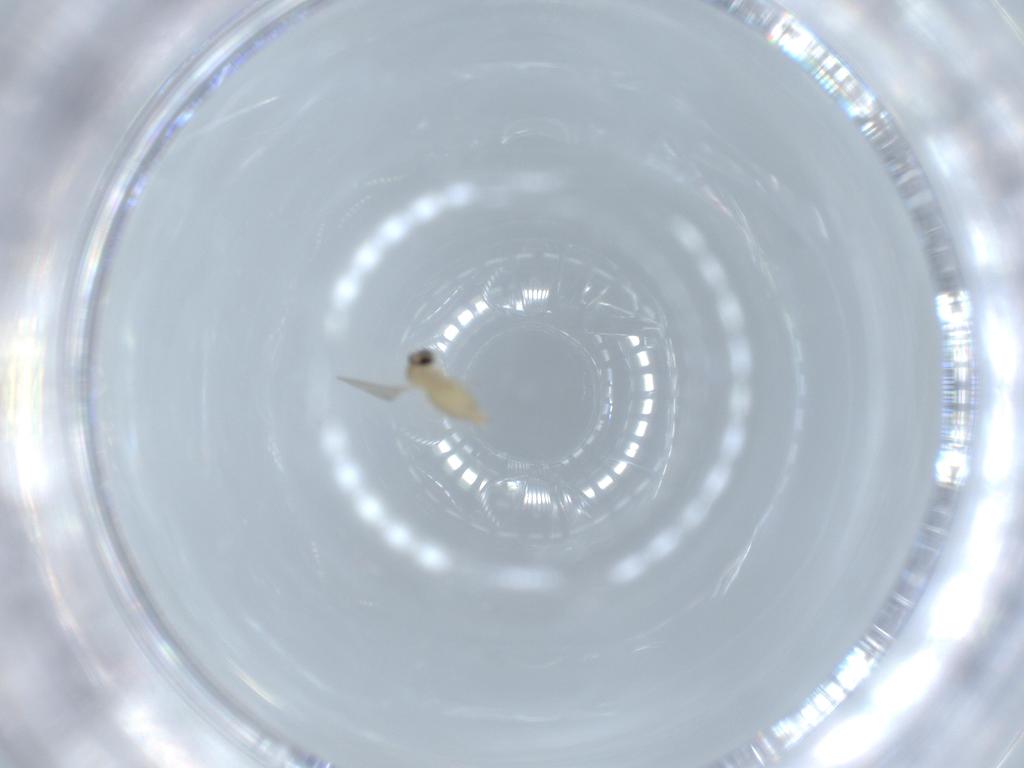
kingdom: Animalia
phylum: Arthropoda
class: Insecta
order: Diptera
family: Cecidomyiidae
